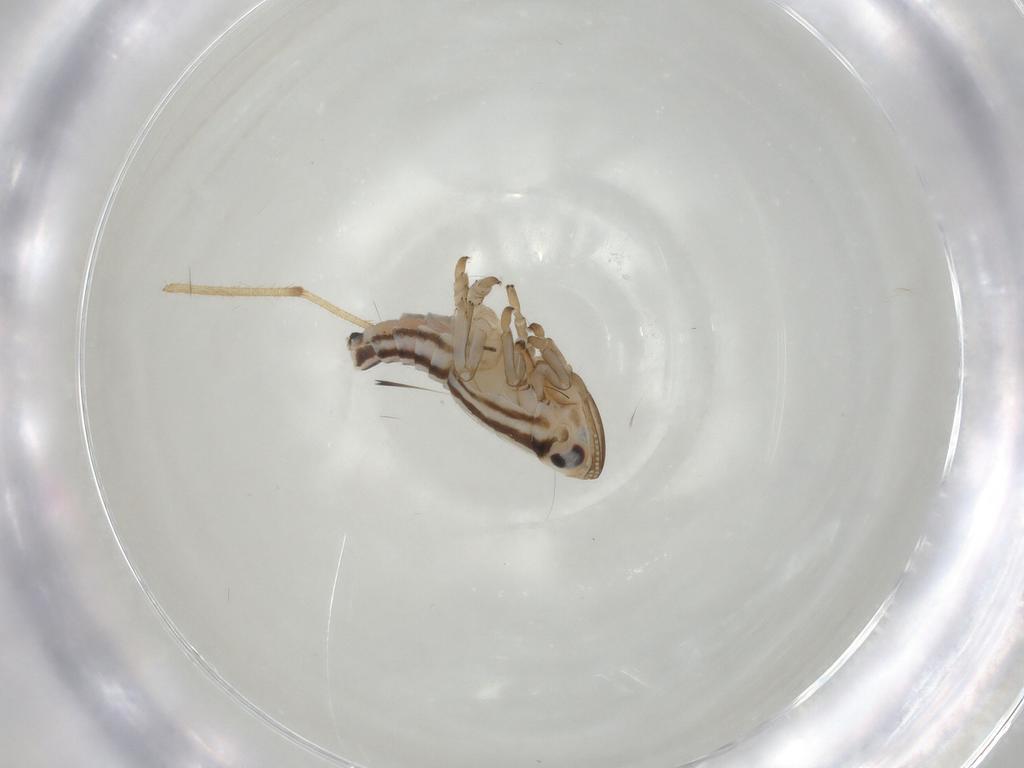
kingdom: Animalia
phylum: Arthropoda
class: Insecta
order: Hemiptera
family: Fulgoroidea_incertae_sedis
